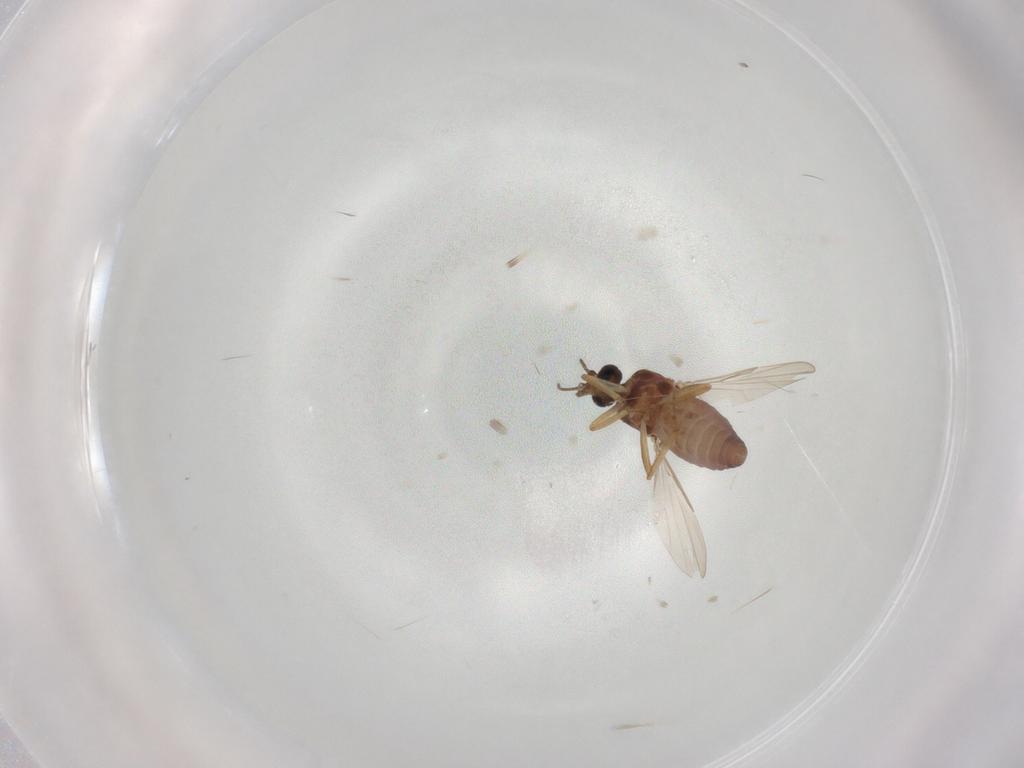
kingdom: Animalia
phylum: Arthropoda
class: Insecta
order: Diptera
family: Ceratopogonidae
